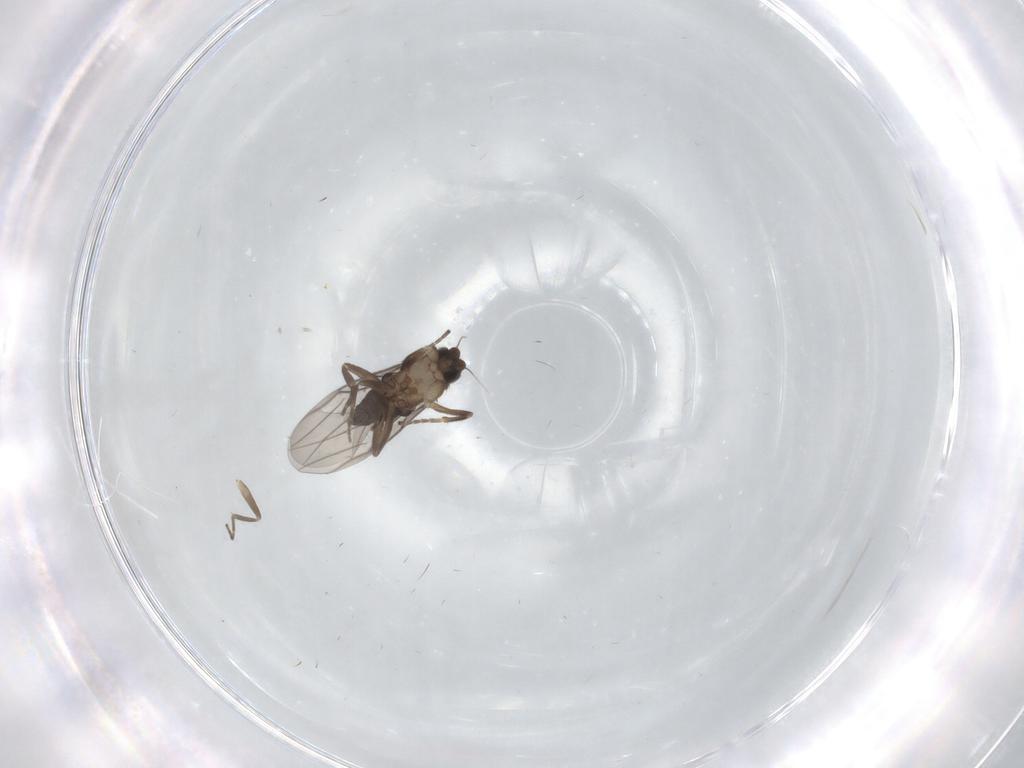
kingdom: Animalia
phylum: Arthropoda
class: Insecta
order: Diptera
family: Phoridae
